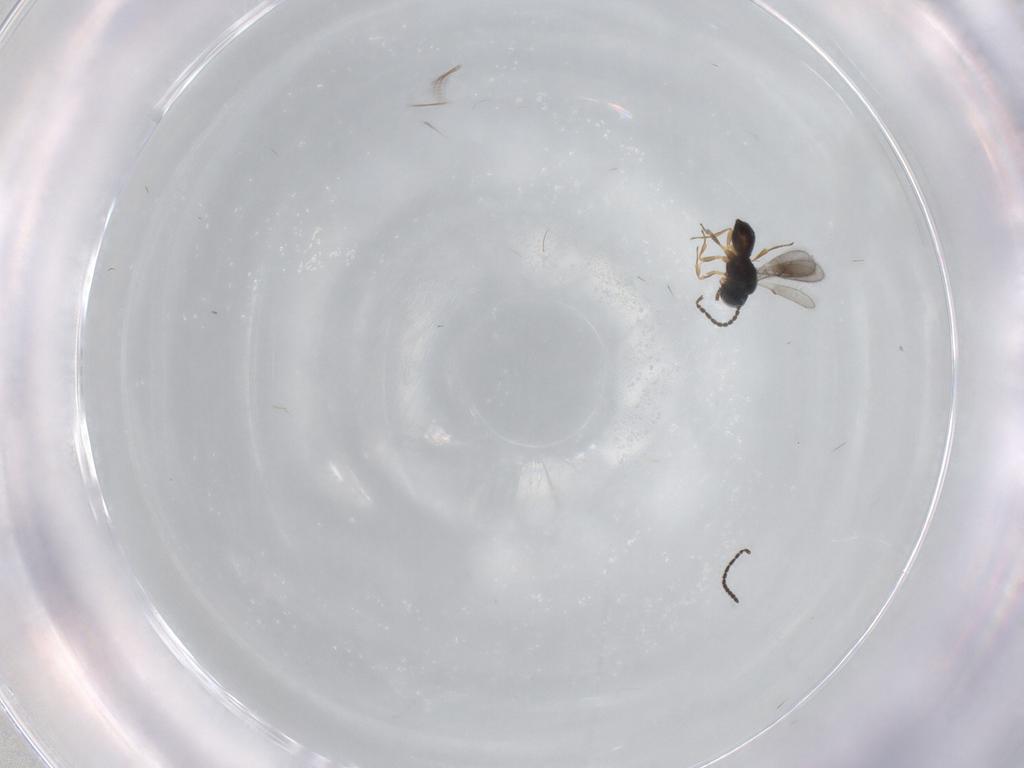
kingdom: Animalia
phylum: Arthropoda
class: Insecta
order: Hymenoptera
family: Scelionidae
